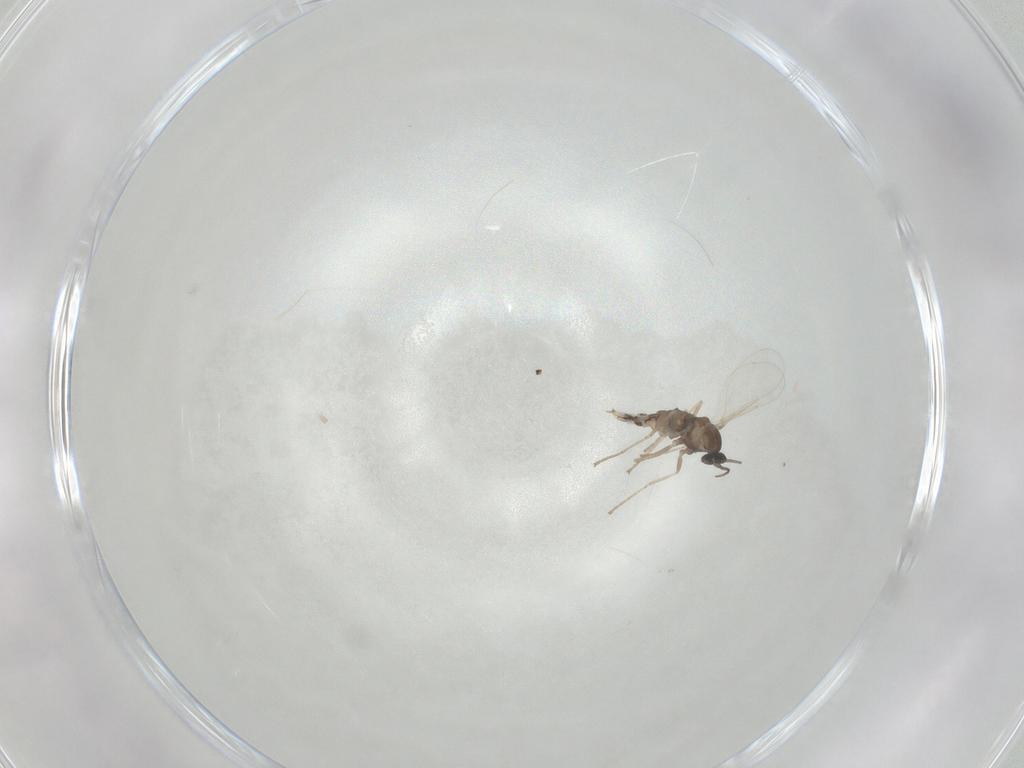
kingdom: Animalia
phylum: Arthropoda
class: Insecta
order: Diptera
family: Cecidomyiidae
